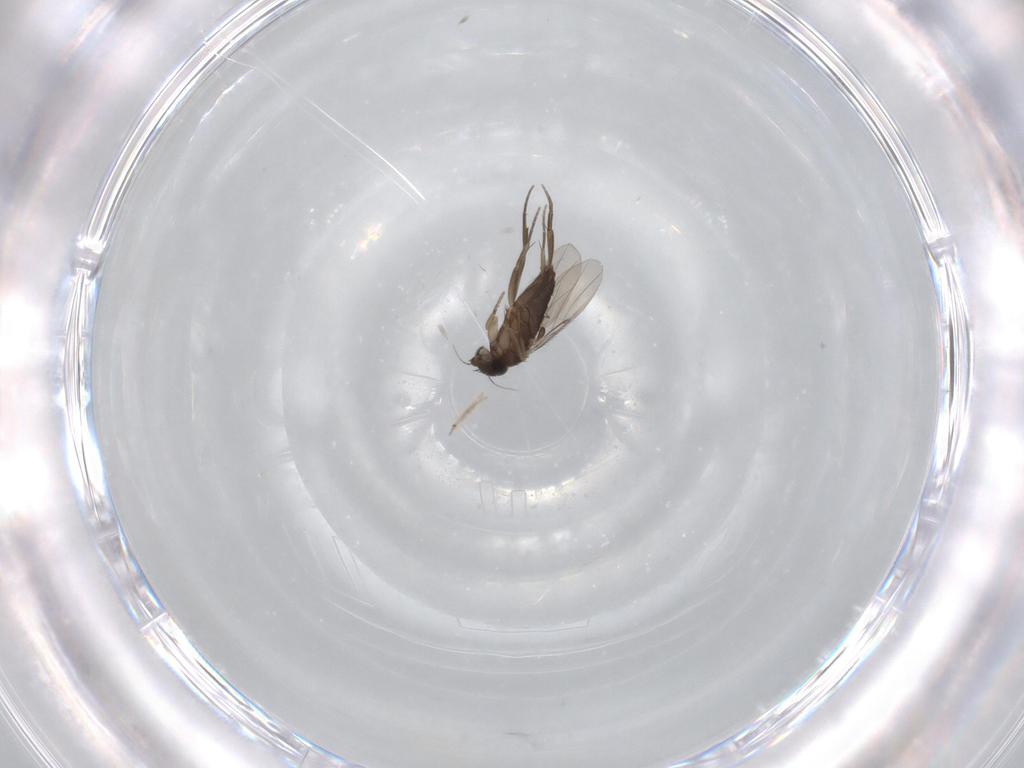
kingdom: Animalia
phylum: Arthropoda
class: Insecta
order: Diptera
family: Phoridae
